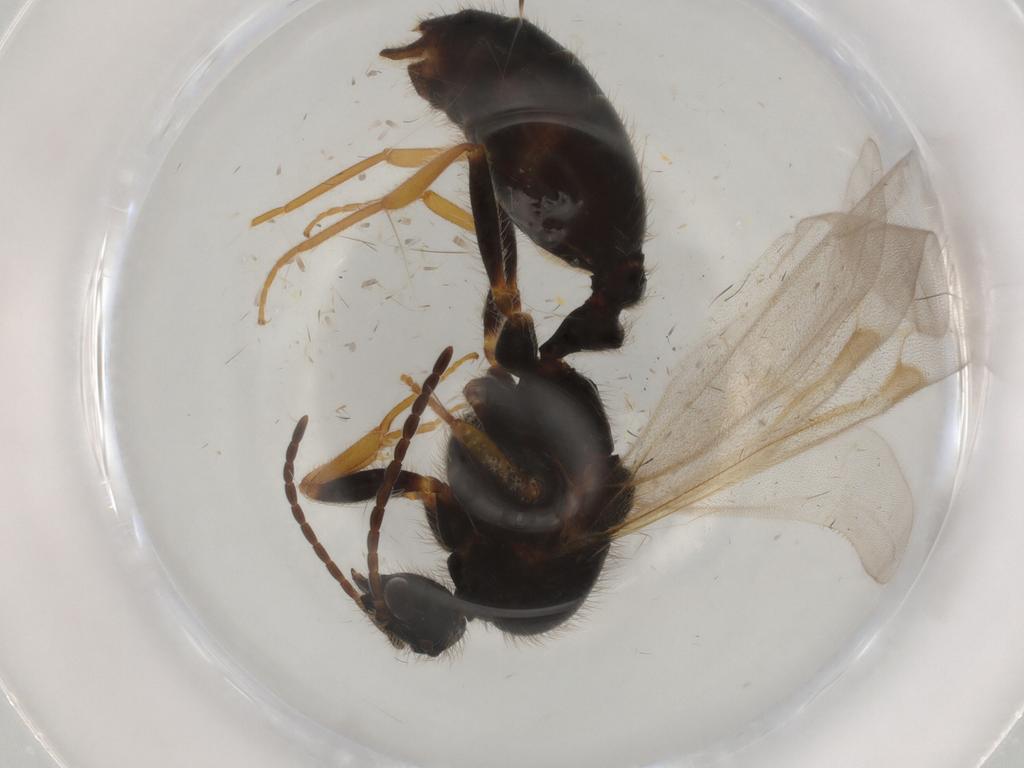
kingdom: Animalia
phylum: Arthropoda
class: Insecta
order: Hymenoptera
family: Formicidae
